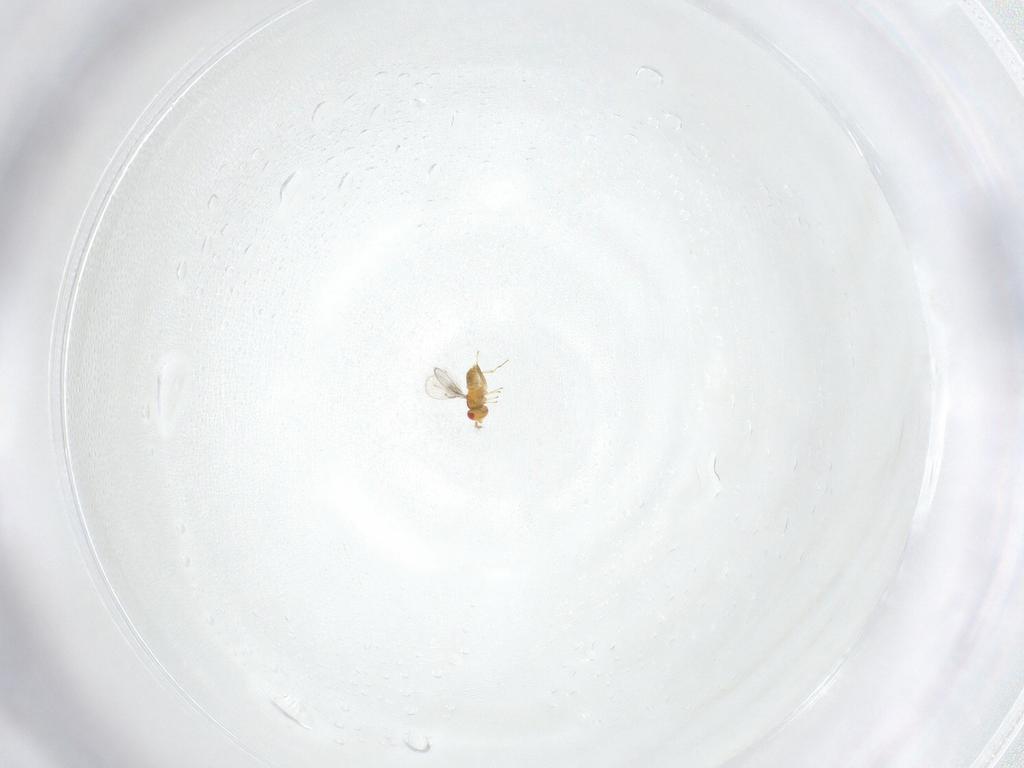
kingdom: Animalia
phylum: Arthropoda
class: Insecta
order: Hymenoptera
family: Trichogrammatidae
